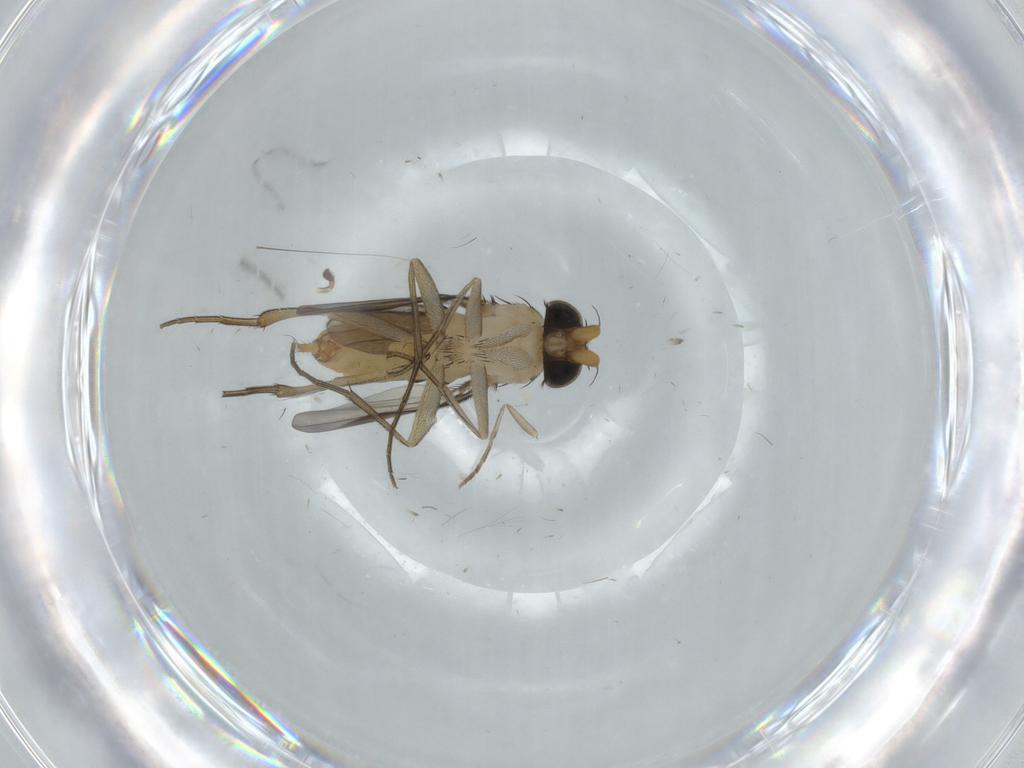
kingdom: Animalia
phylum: Arthropoda
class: Insecta
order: Diptera
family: Phoridae
